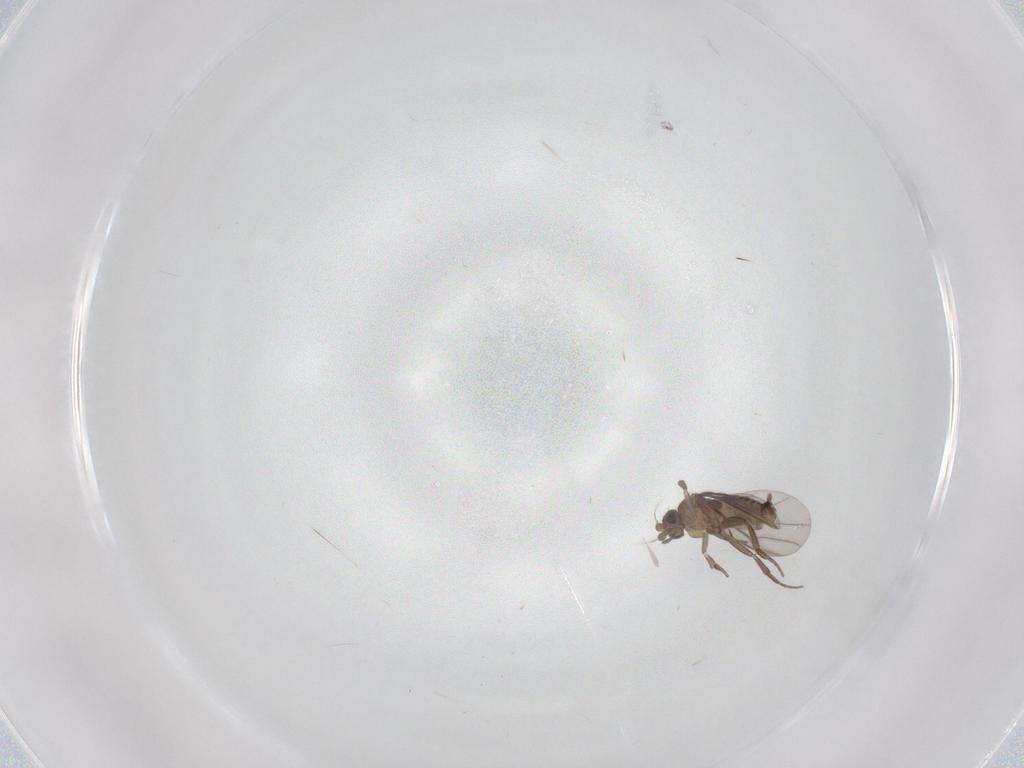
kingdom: Animalia
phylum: Arthropoda
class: Insecta
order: Diptera
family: Phoridae
